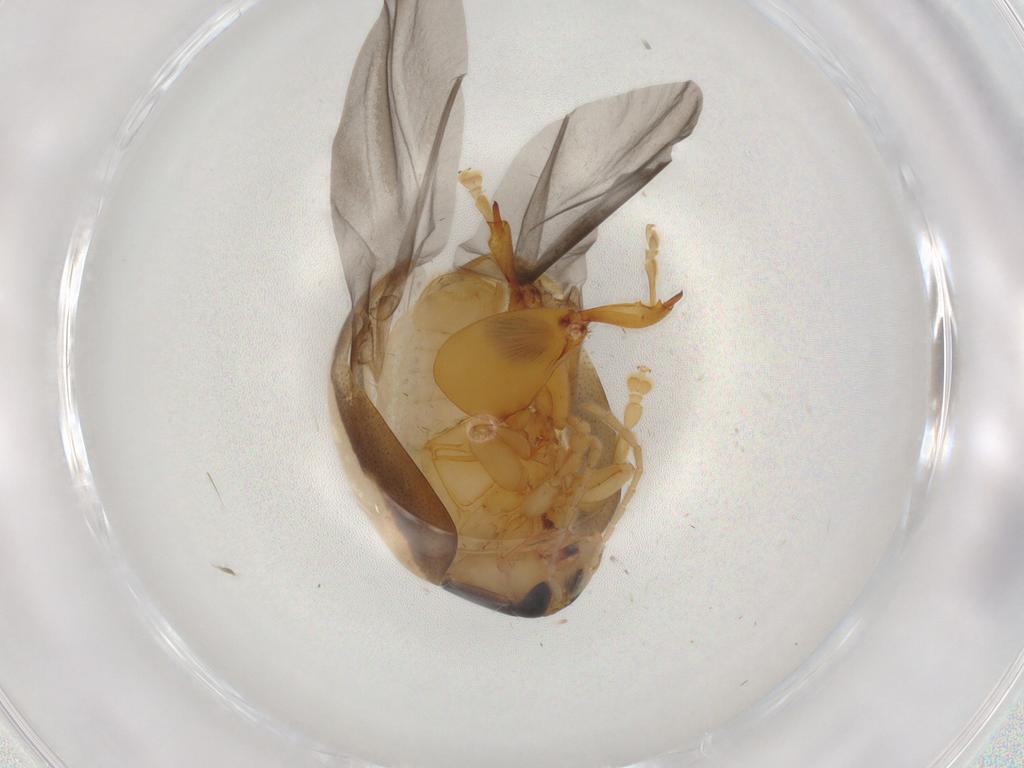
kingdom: Animalia
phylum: Arthropoda
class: Insecta
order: Coleoptera
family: Chrysomelidae
